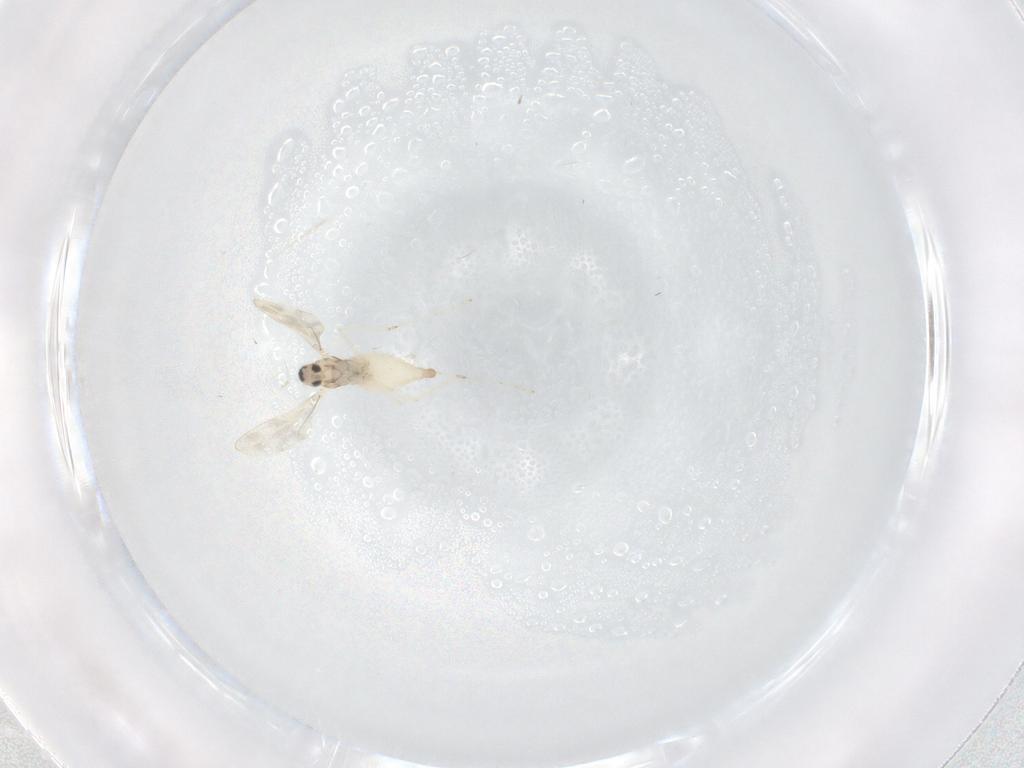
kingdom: Animalia
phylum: Arthropoda
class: Insecta
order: Diptera
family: Cecidomyiidae
